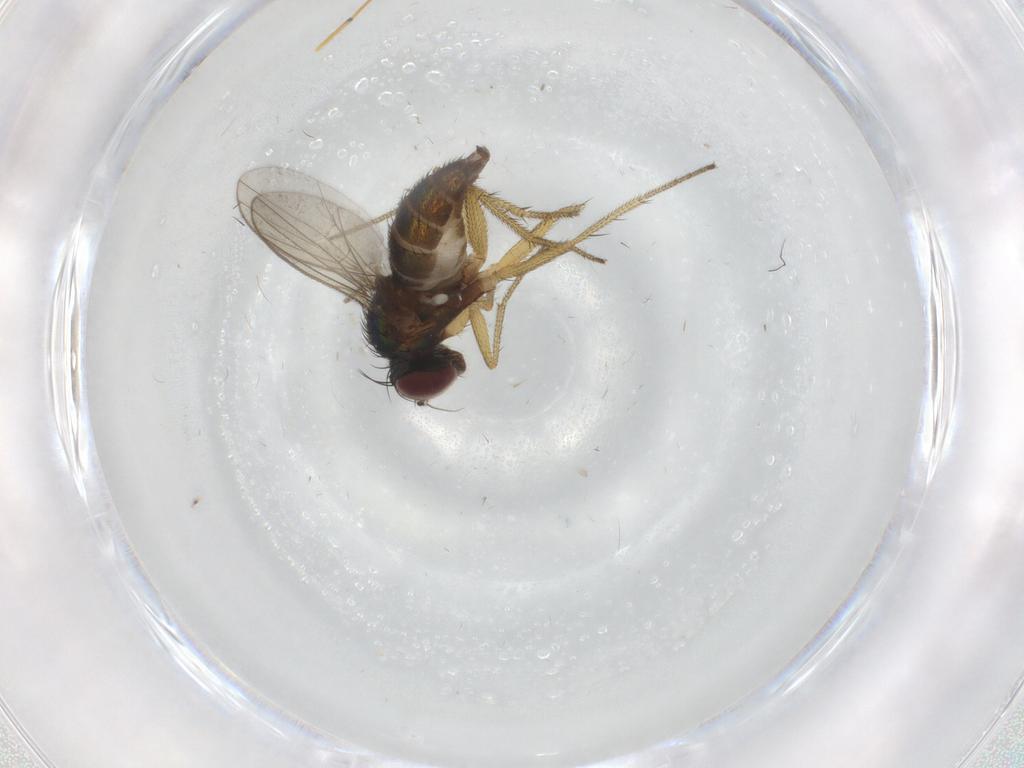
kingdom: Animalia
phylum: Arthropoda
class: Insecta
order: Diptera
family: Dolichopodidae
